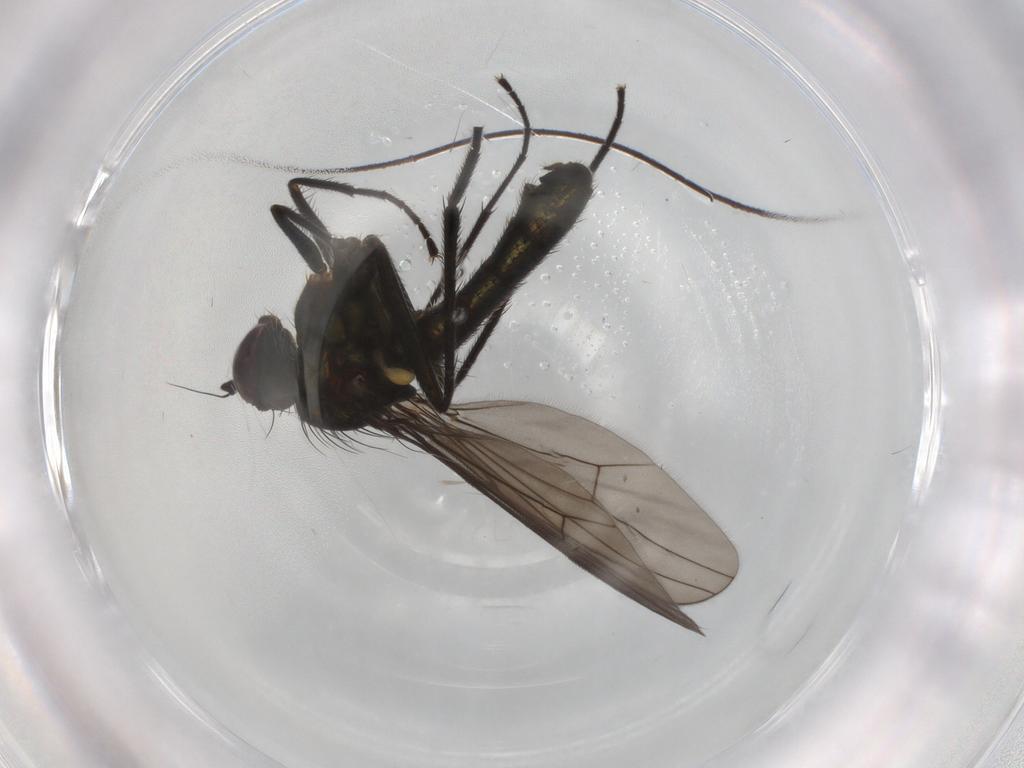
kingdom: Animalia
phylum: Arthropoda
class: Insecta
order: Diptera
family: Dolichopodidae
